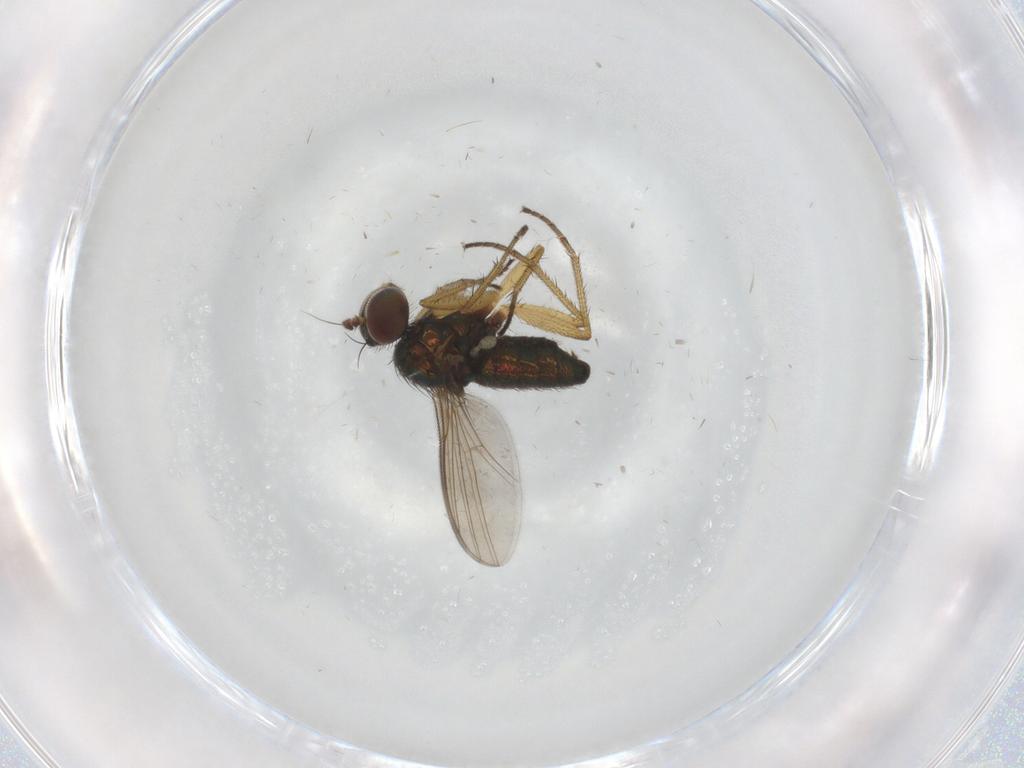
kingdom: Animalia
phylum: Arthropoda
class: Insecta
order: Diptera
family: Dolichopodidae
